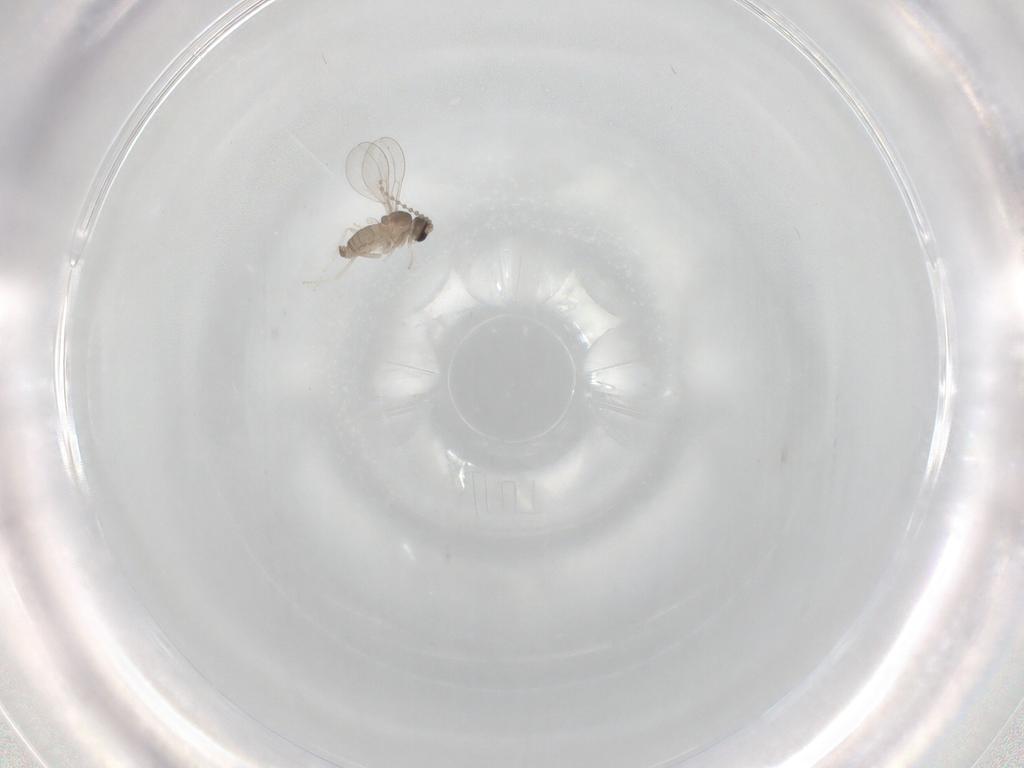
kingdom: Animalia
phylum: Arthropoda
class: Insecta
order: Diptera
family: Cecidomyiidae
